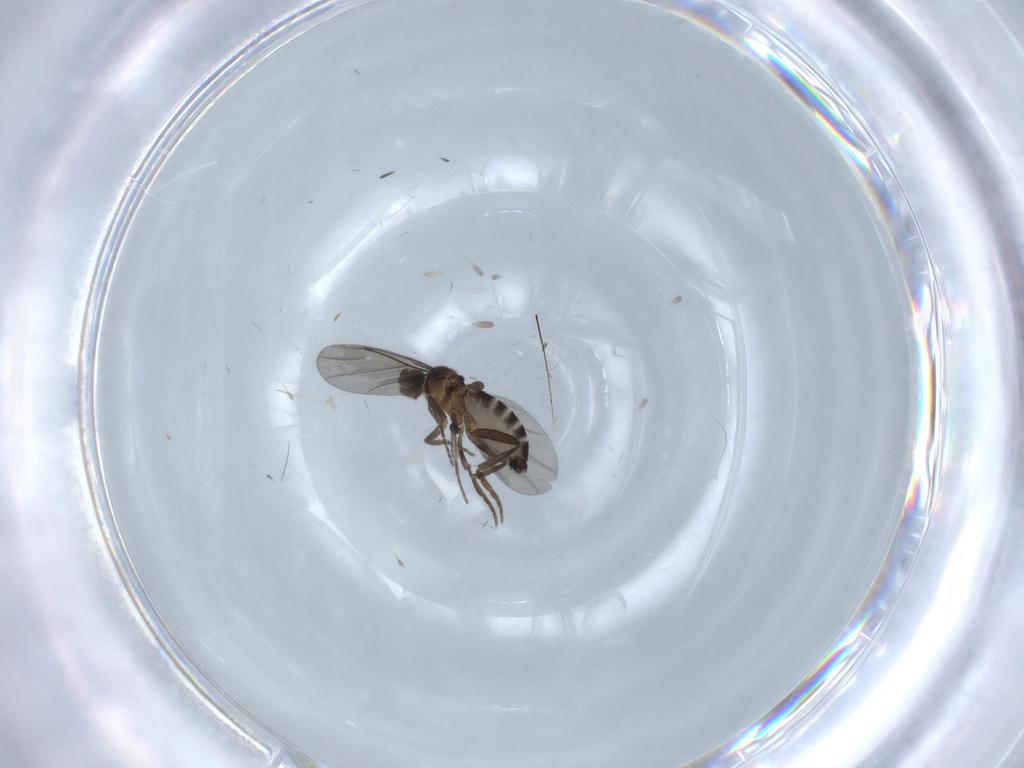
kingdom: Animalia
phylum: Arthropoda
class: Insecta
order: Diptera
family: Phoridae
